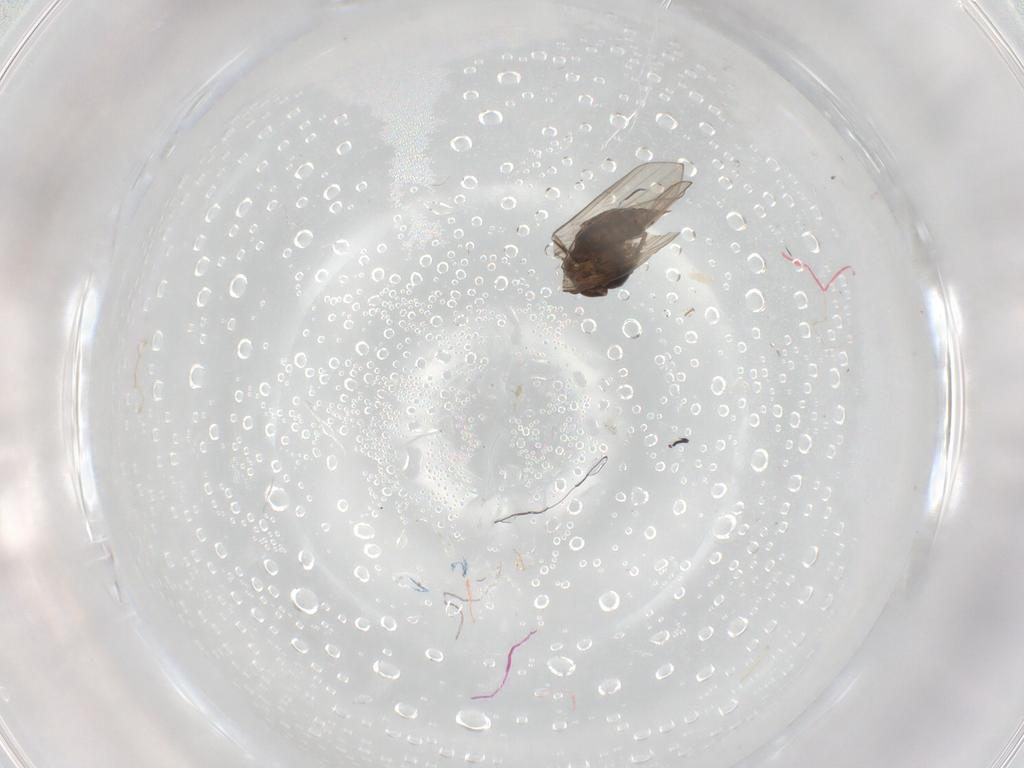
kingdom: Animalia
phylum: Arthropoda
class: Insecta
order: Diptera
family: Psychodidae
